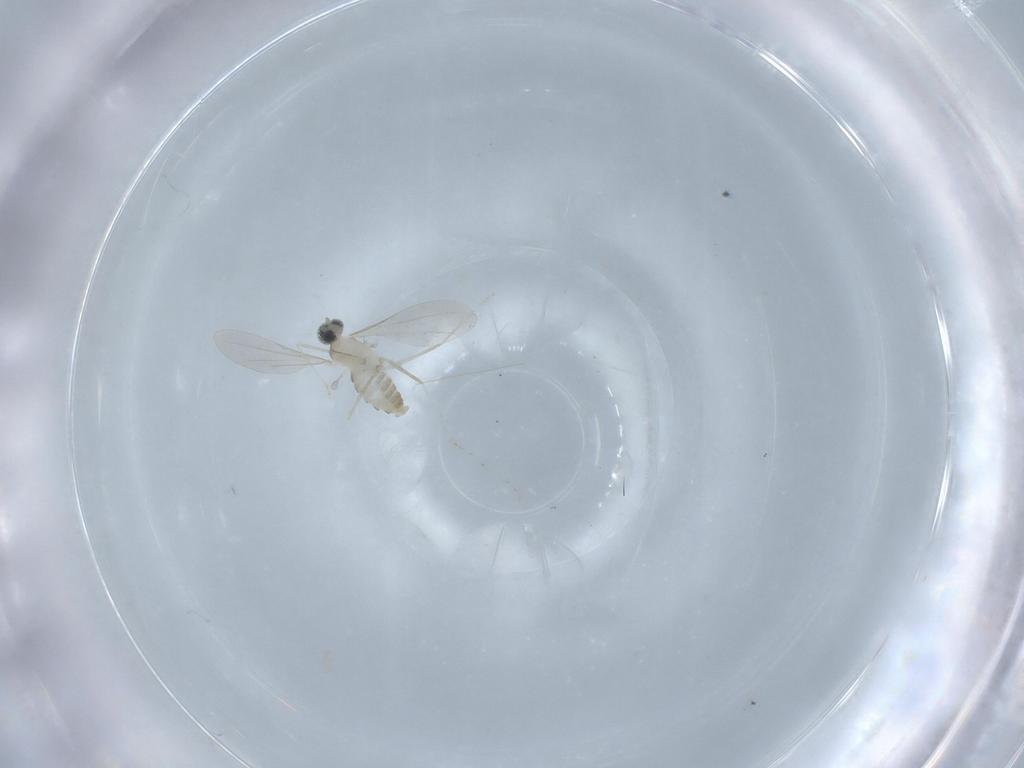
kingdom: Animalia
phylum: Arthropoda
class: Insecta
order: Diptera
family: Cecidomyiidae
